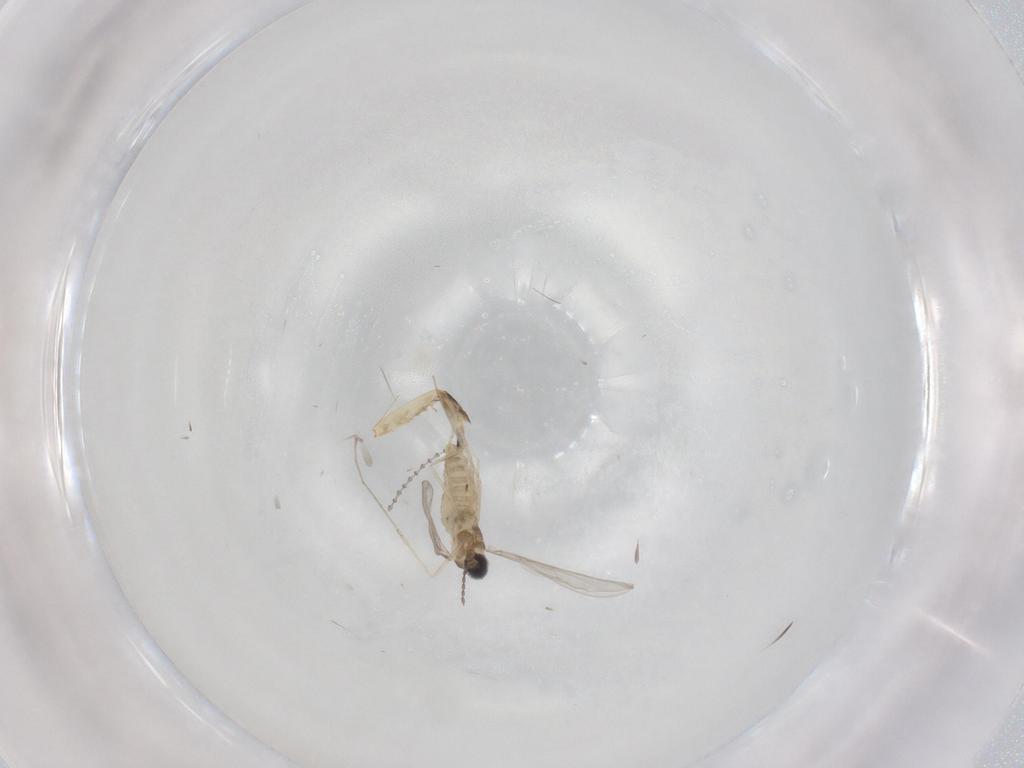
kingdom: Animalia
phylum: Arthropoda
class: Insecta
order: Diptera
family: Cecidomyiidae
